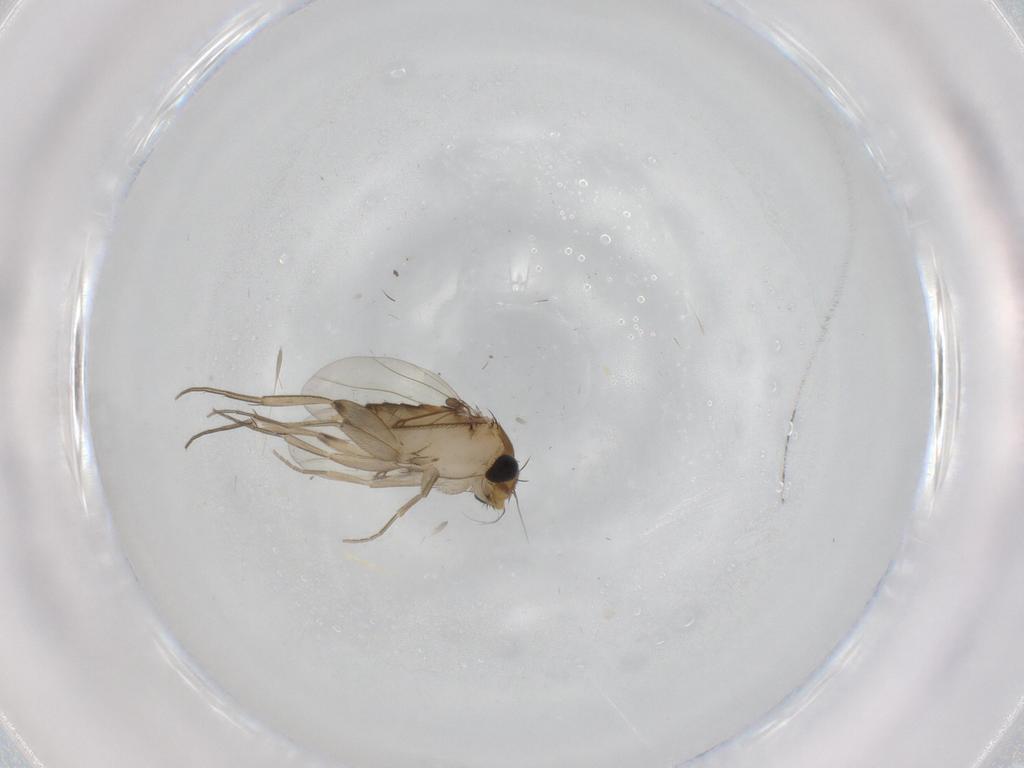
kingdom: Animalia
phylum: Arthropoda
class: Insecta
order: Diptera
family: Phoridae
